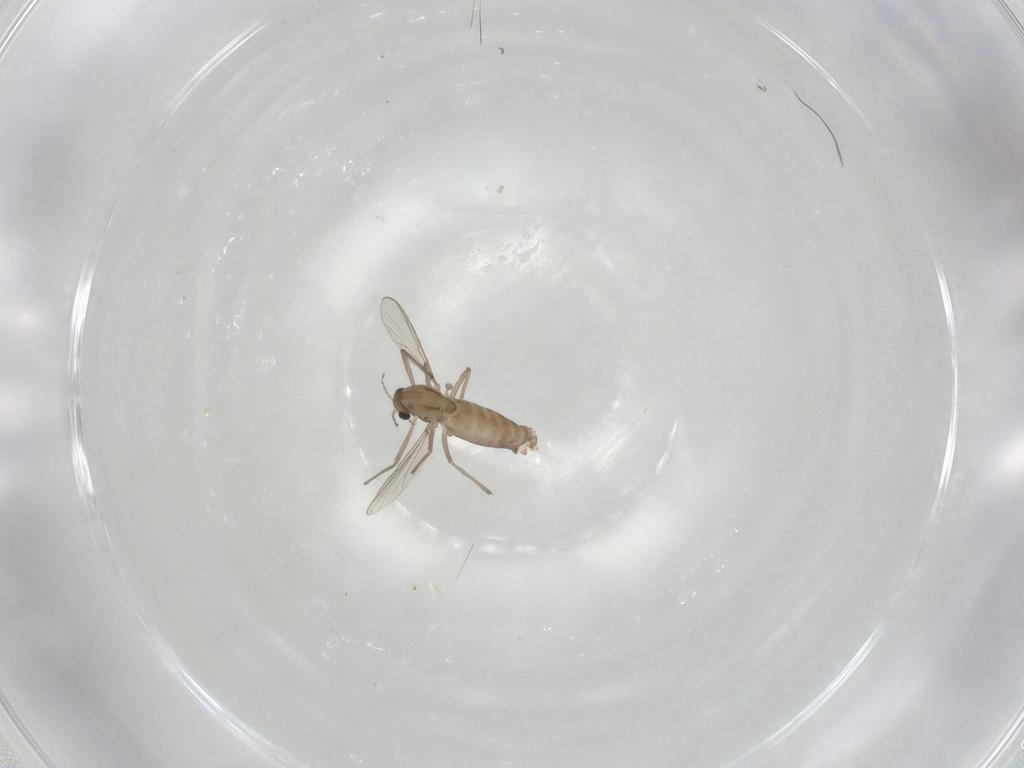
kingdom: Animalia
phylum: Arthropoda
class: Insecta
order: Diptera
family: Chironomidae
